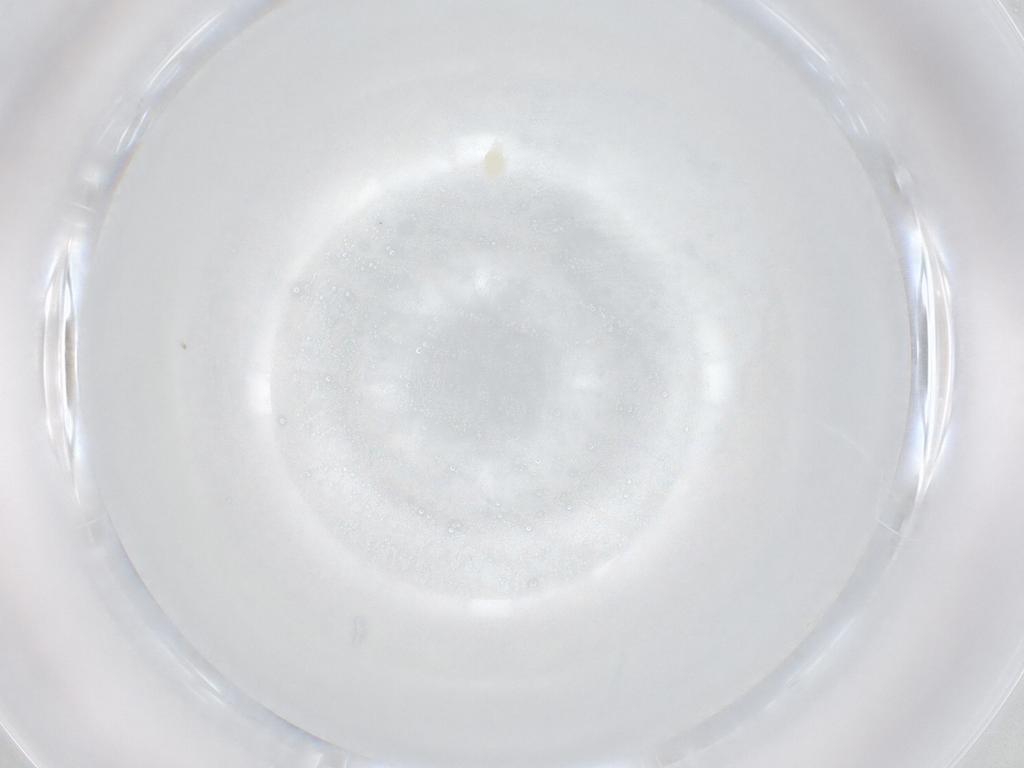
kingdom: Animalia
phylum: Arthropoda
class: Arachnida
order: Trombidiformes
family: Eupodidae
